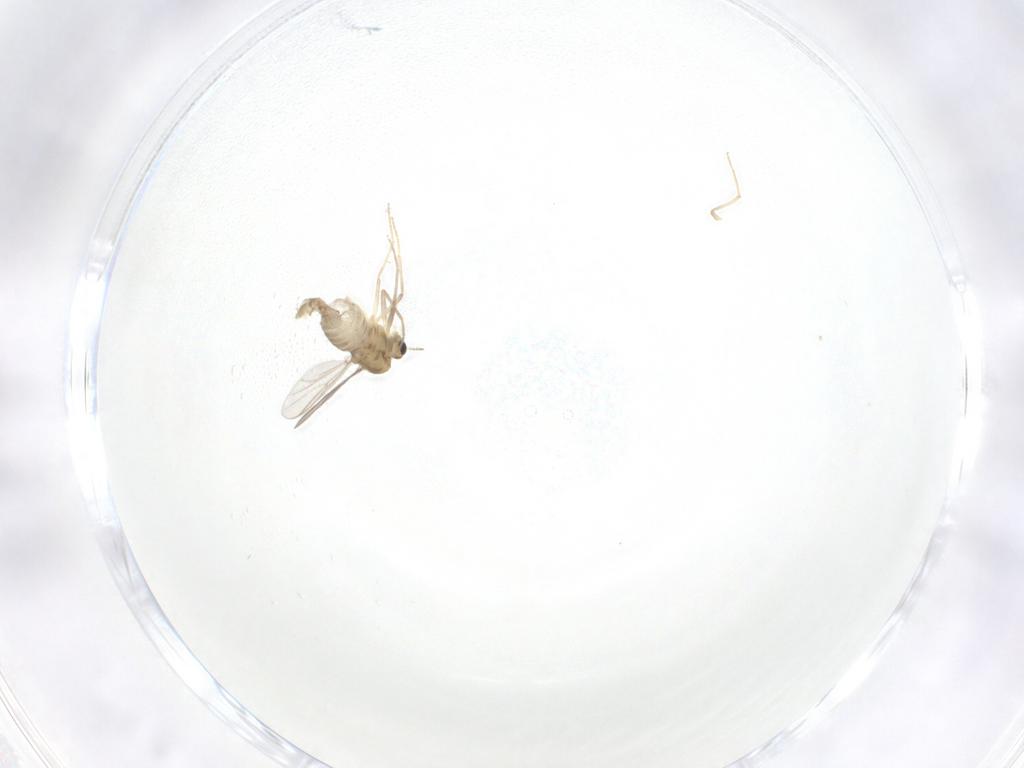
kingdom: Animalia
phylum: Arthropoda
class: Insecta
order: Diptera
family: Chironomidae
